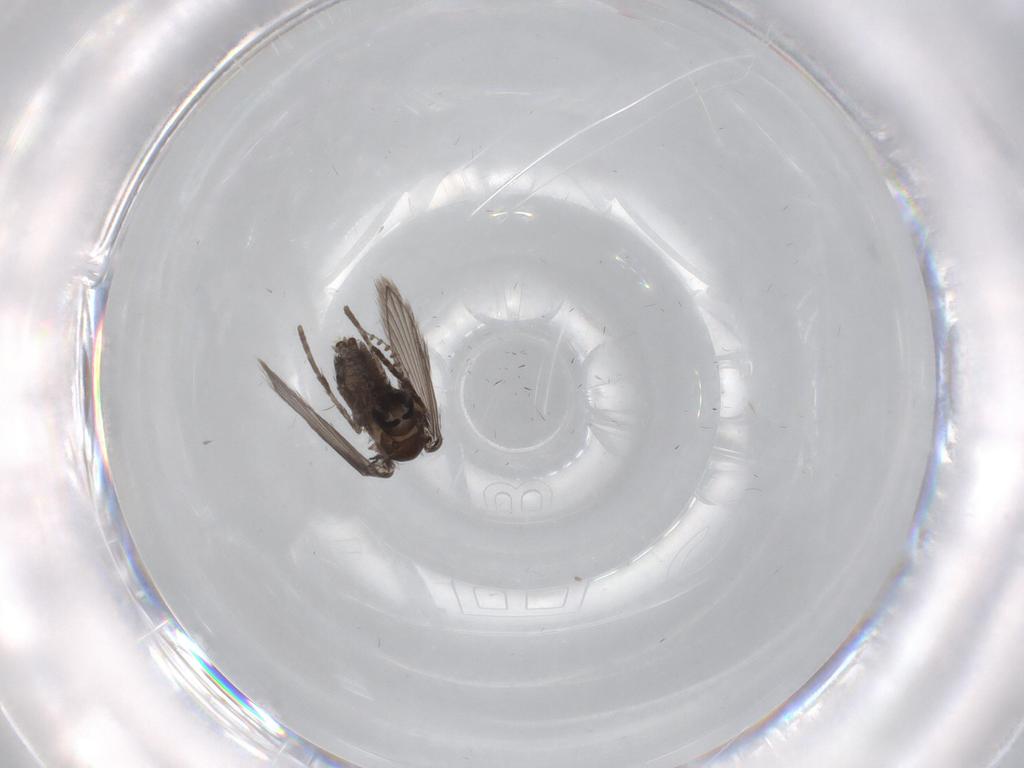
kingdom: Animalia
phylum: Arthropoda
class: Insecta
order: Diptera
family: Psychodidae
